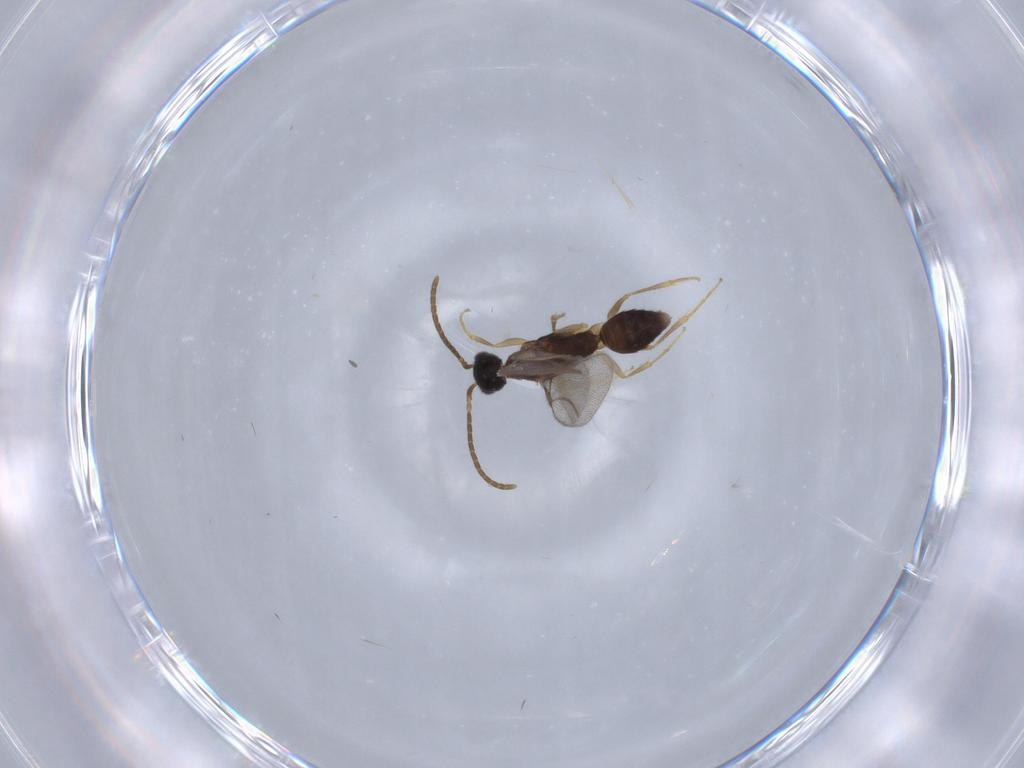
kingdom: Animalia
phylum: Arthropoda
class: Insecta
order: Hymenoptera
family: Bethylidae
